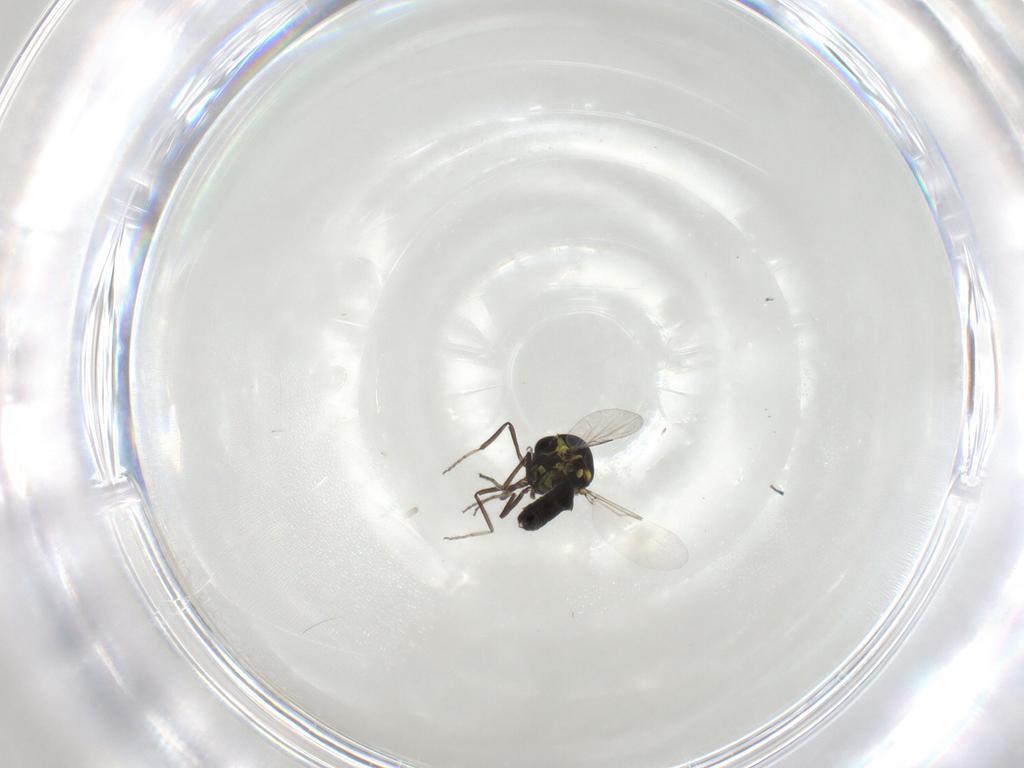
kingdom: Animalia
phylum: Arthropoda
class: Insecta
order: Diptera
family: Ceratopogonidae
